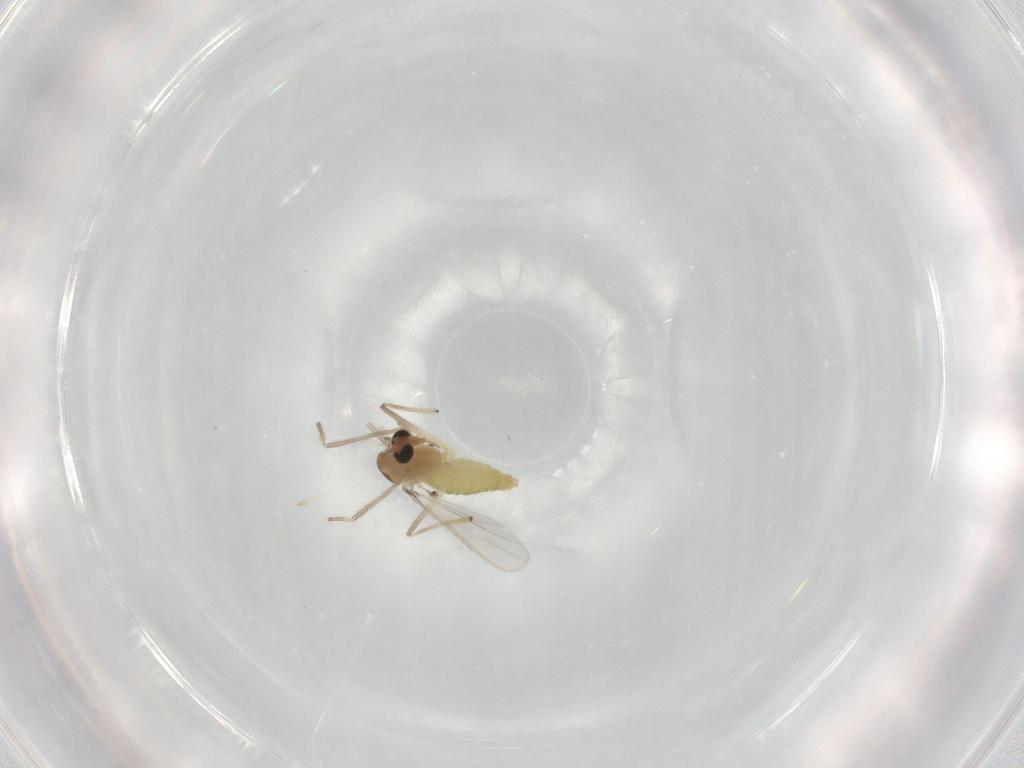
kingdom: Animalia
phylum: Arthropoda
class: Insecta
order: Diptera
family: Chironomidae
